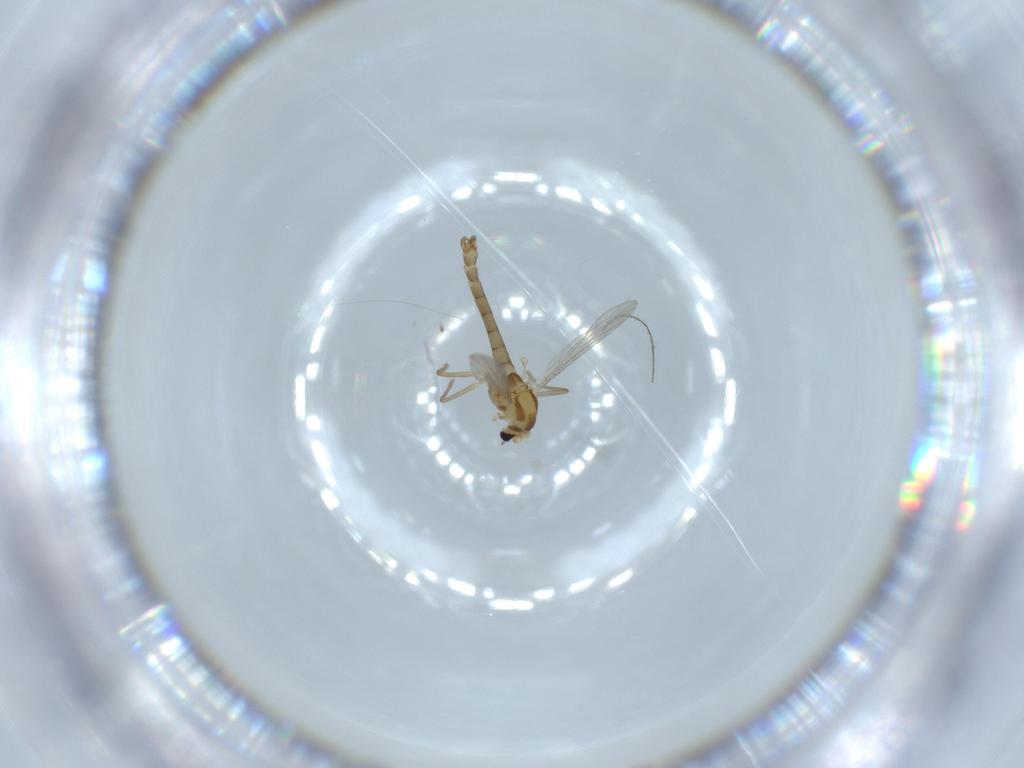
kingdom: Animalia
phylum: Arthropoda
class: Insecta
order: Diptera
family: Chironomidae
